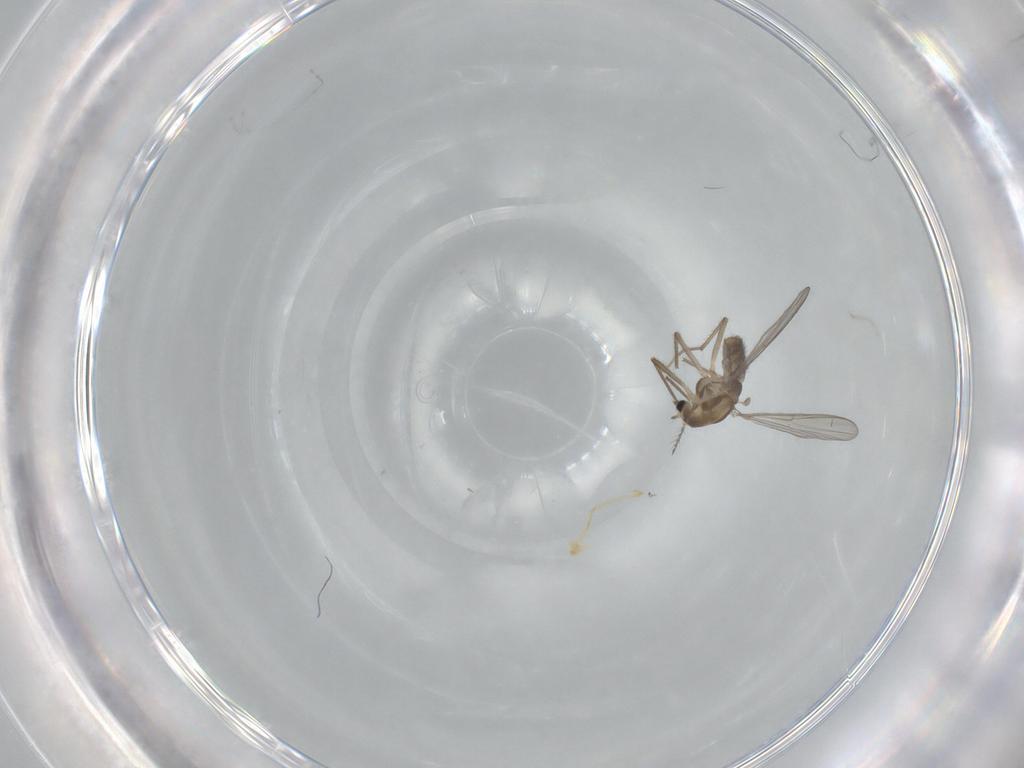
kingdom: Animalia
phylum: Arthropoda
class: Insecta
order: Diptera
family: Chironomidae
